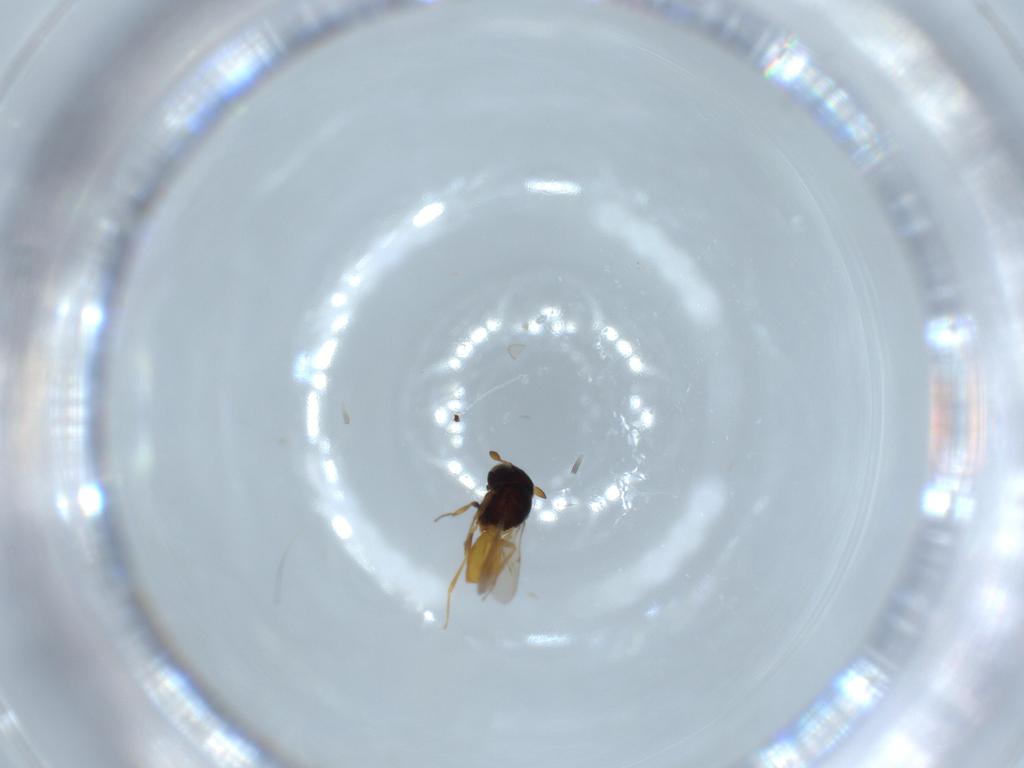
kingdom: Animalia
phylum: Arthropoda
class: Insecta
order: Hymenoptera
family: Scelionidae
